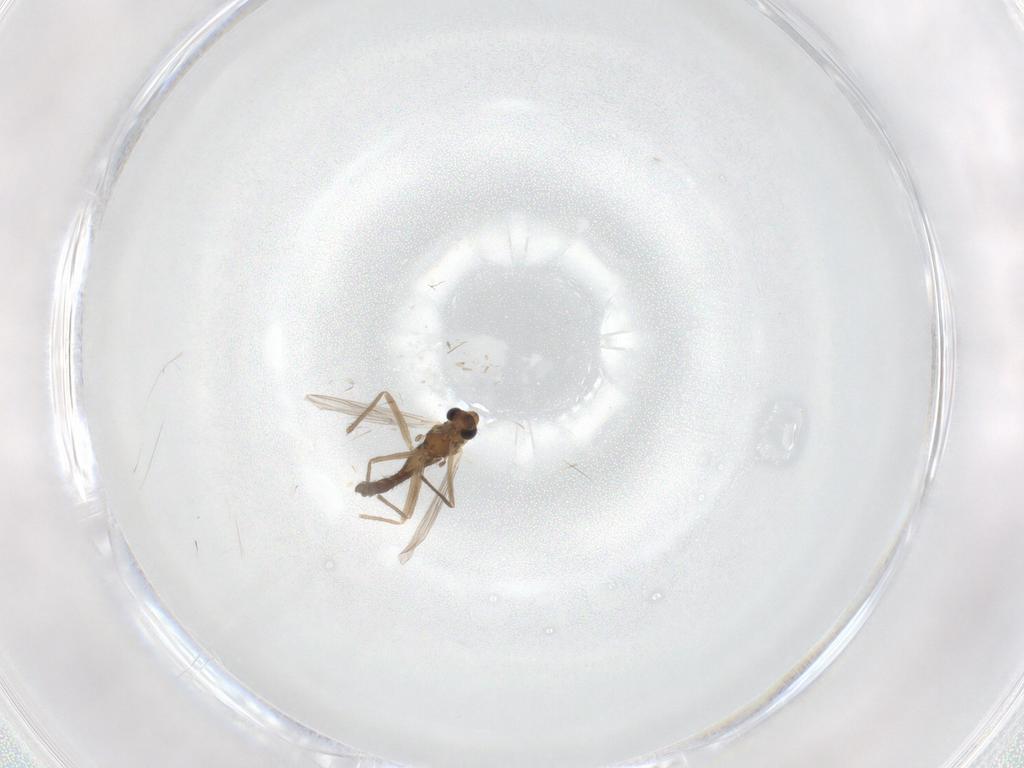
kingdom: Animalia
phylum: Arthropoda
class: Insecta
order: Diptera
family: Chironomidae
